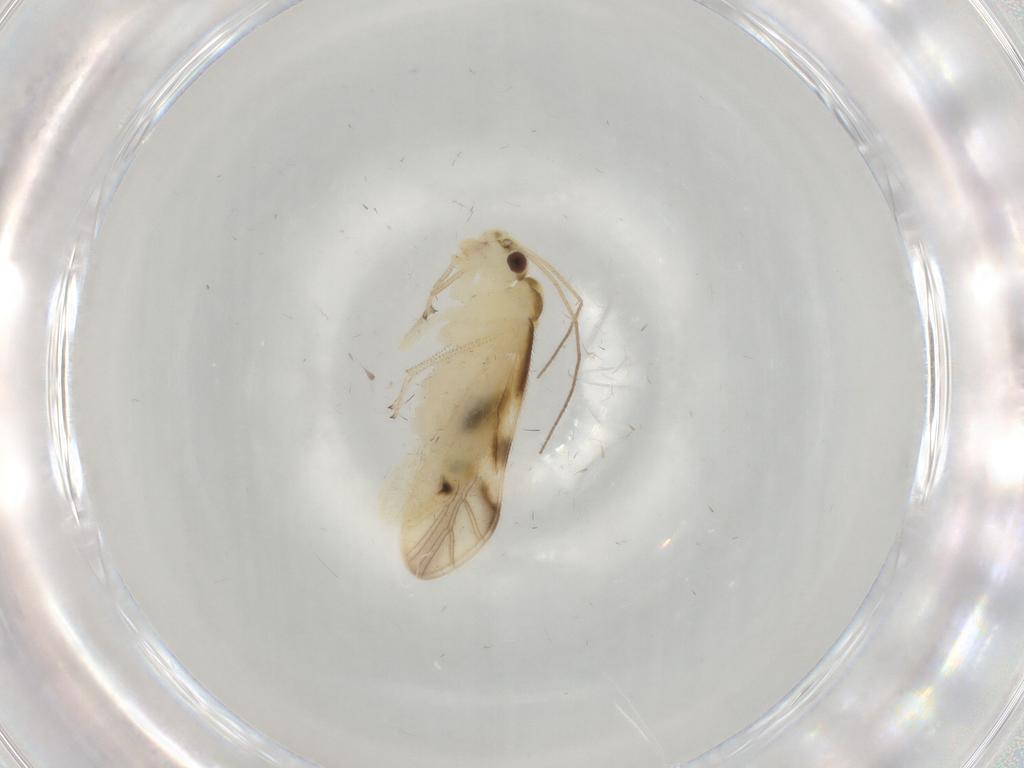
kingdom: Animalia
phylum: Arthropoda
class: Insecta
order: Psocodea
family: Caeciliusidae
